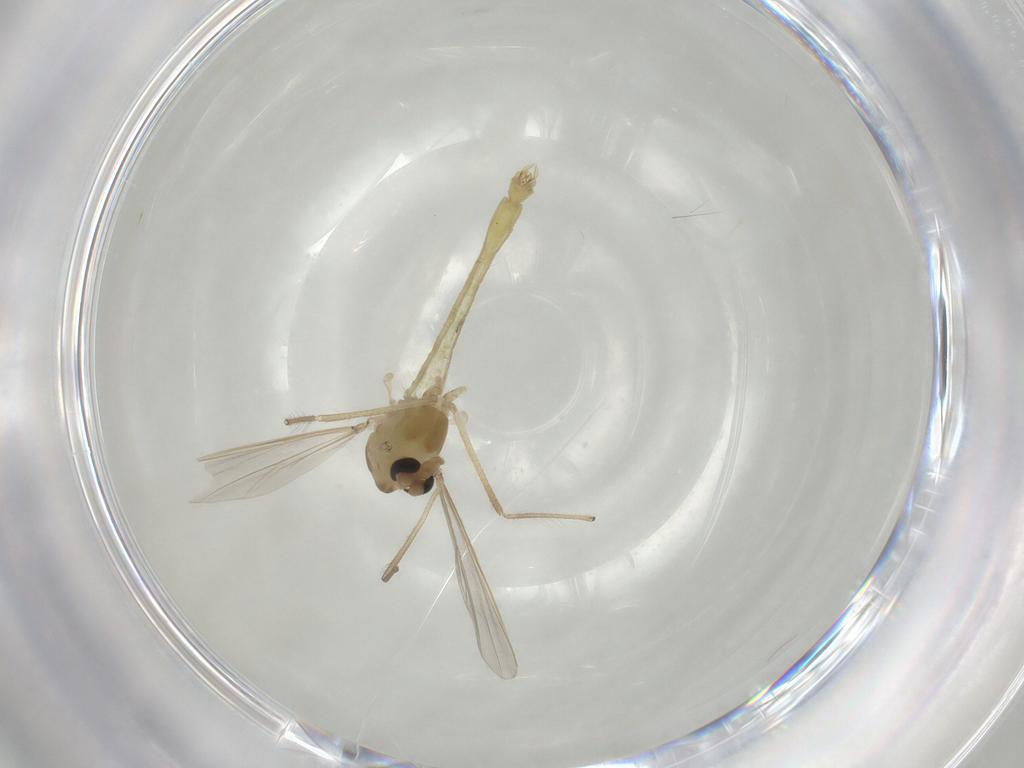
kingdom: Animalia
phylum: Arthropoda
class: Insecta
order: Diptera
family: Chironomidae
